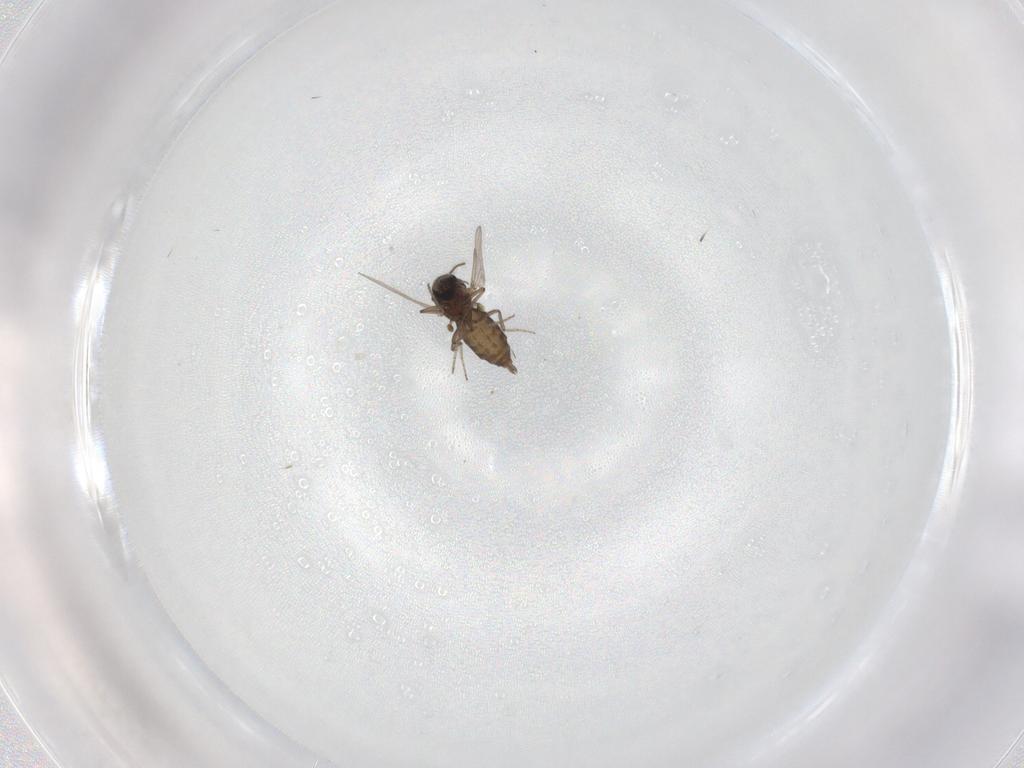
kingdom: Animalia
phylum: Arthropoda
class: Insecta
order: Diptera
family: Ceratopogonidae
